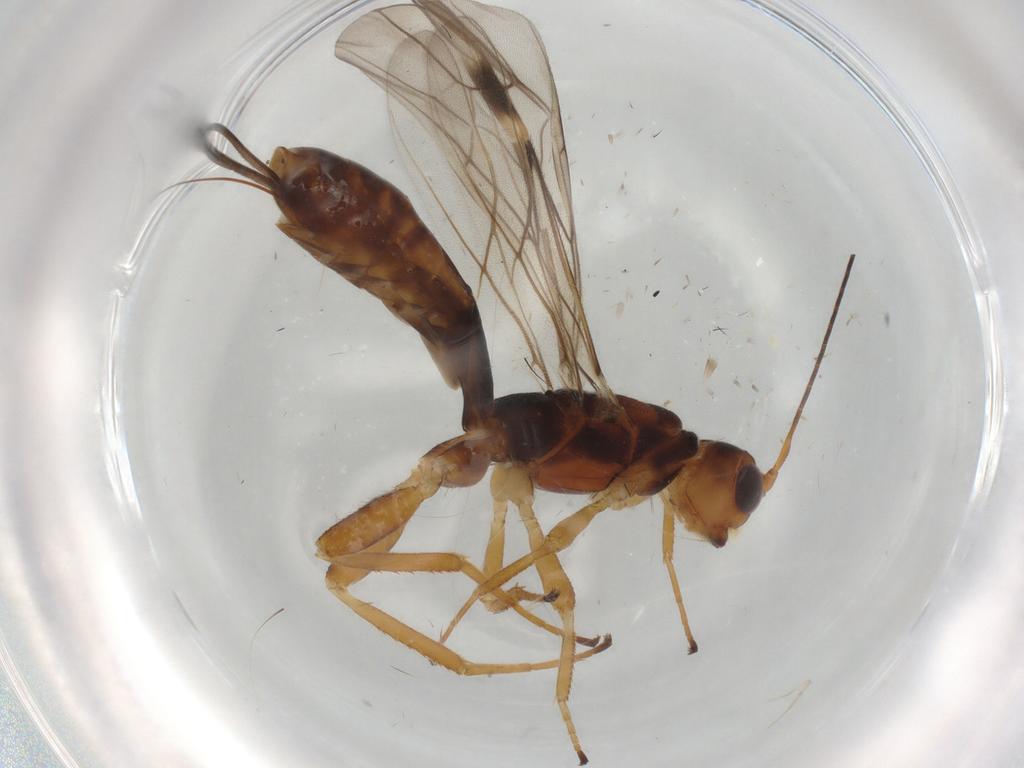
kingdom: Animalia
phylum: Arthropoda
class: Insecta
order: Hymenoptera
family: Braconidae
